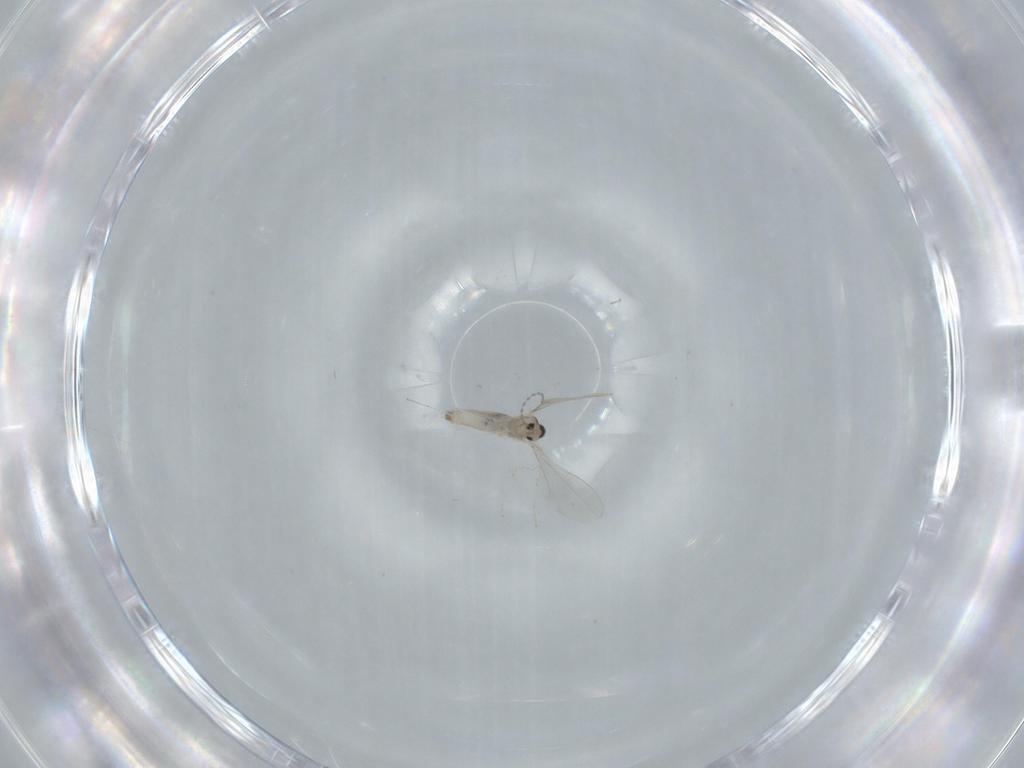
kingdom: Animalia
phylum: Arthropoda
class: Insecta
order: Diptera
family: Cecidomyiidae
